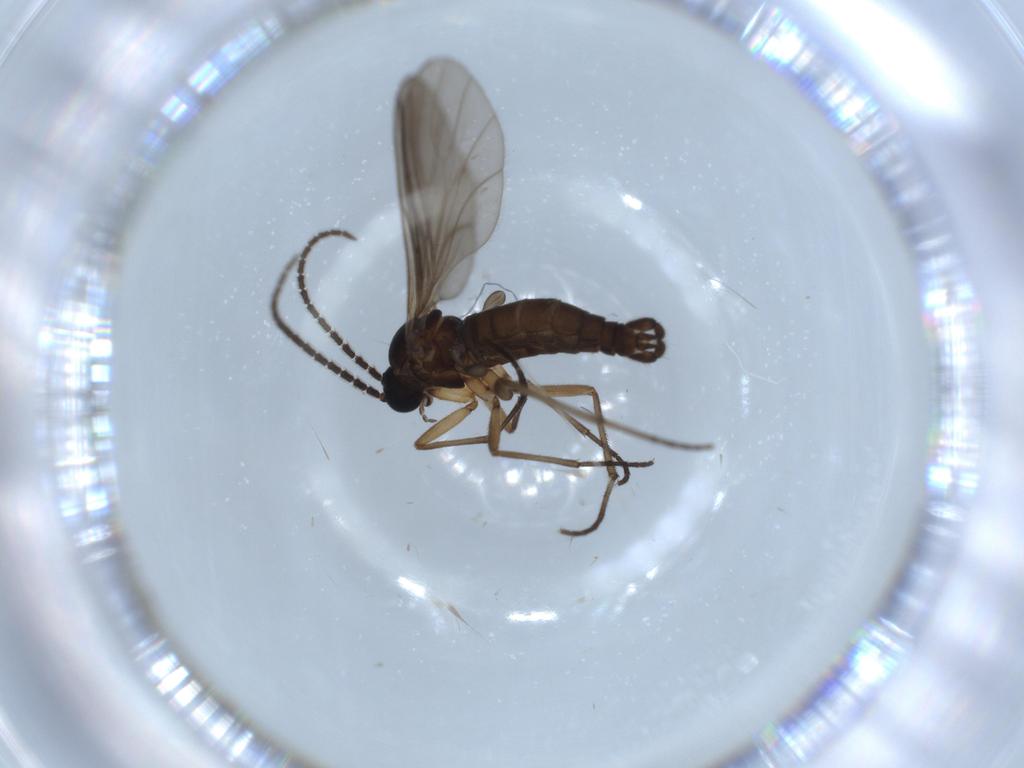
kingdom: Animalia
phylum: Arthropoda
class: Insecta
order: Diptera
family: Sciaridae
